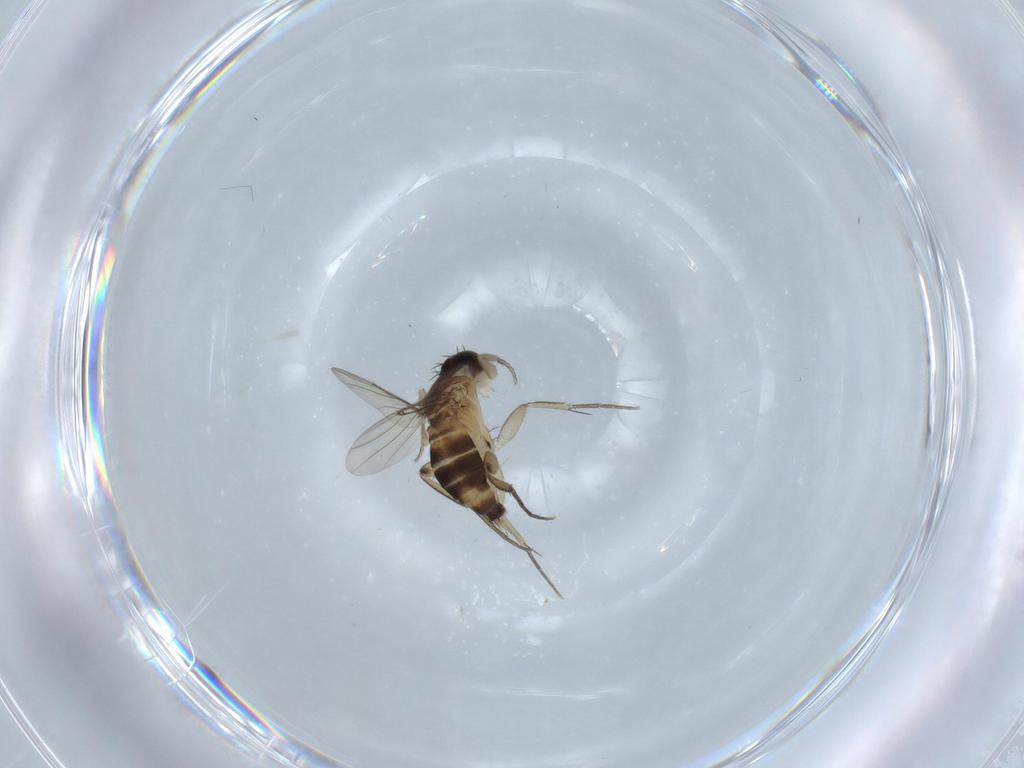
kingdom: Animalia
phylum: Arthropoda
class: Insecta
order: Diptera
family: Phoridae
